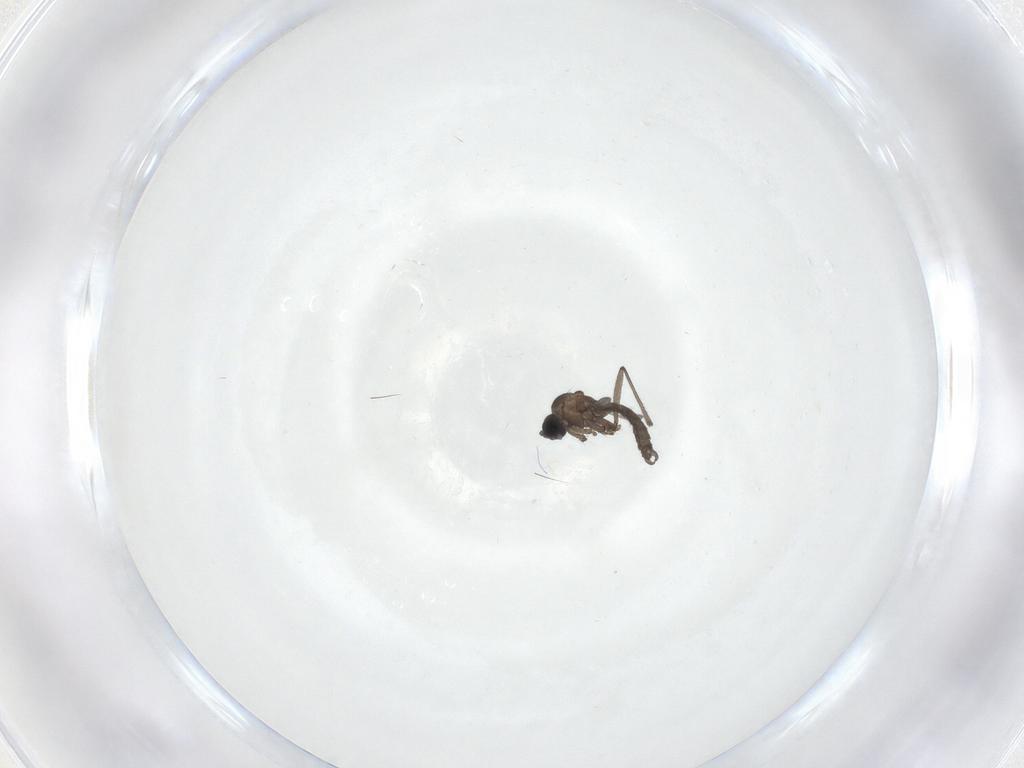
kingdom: Animalia
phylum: Arthropoda
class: Insecta
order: Diptera
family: Sciaridae
